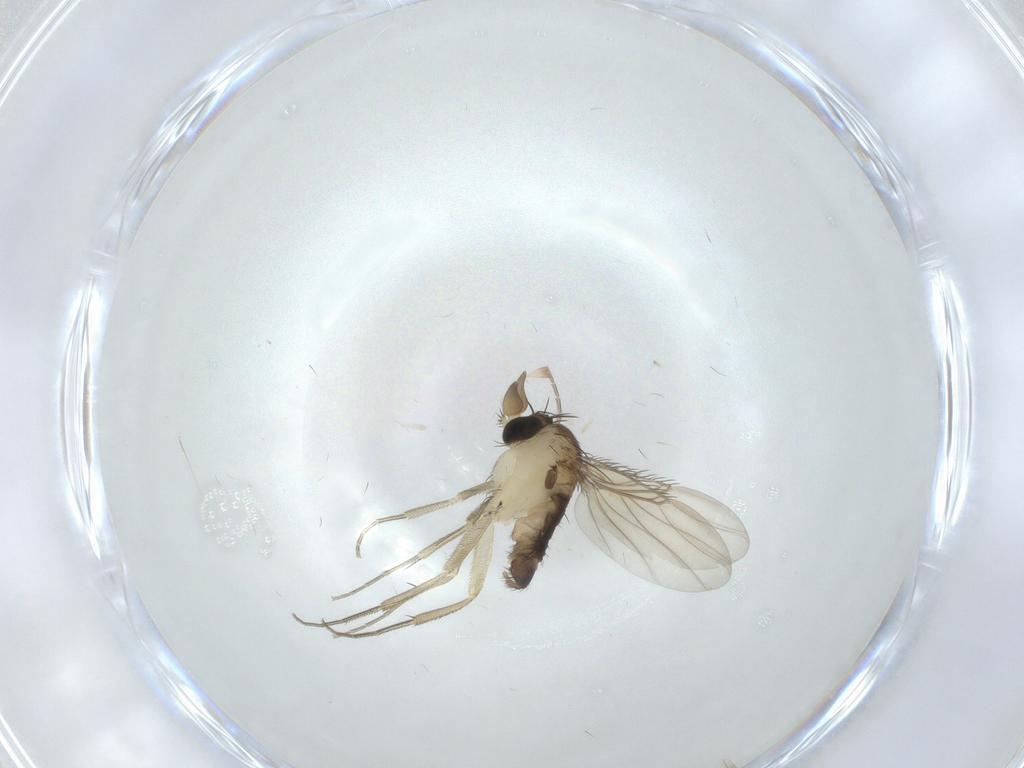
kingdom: Animalia
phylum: Arthropoda
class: Insecta
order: Diptera
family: Phoridae
